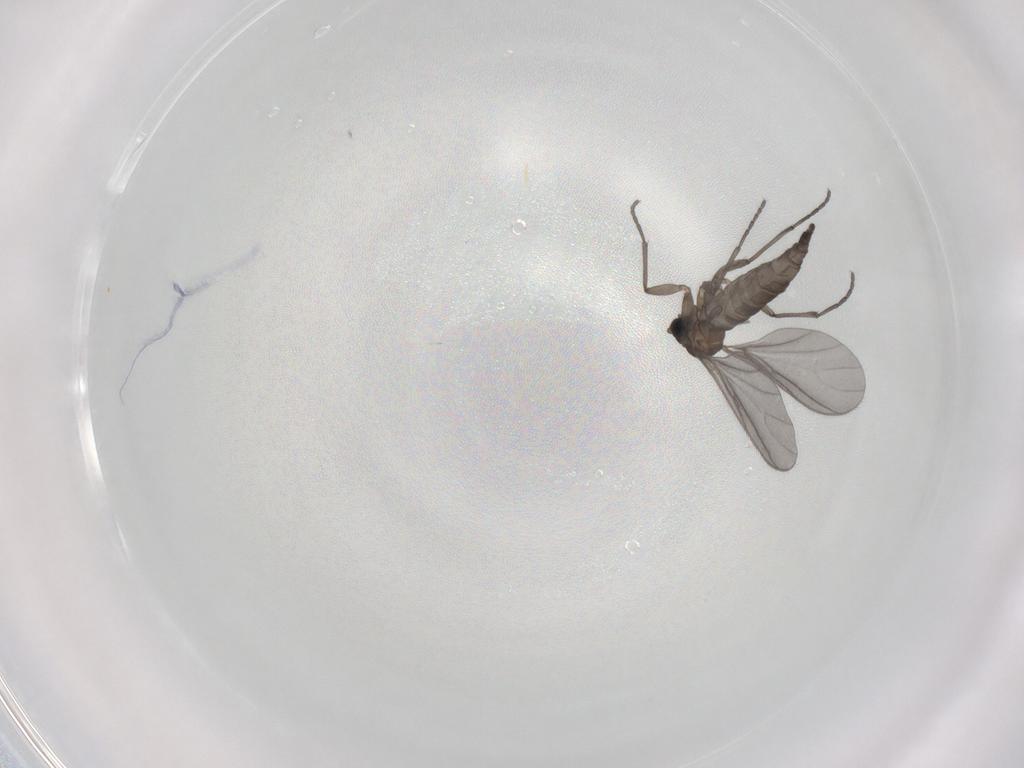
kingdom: Animalia
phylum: Arthropoda
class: Insecta
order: Diptera
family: Sciaridae
